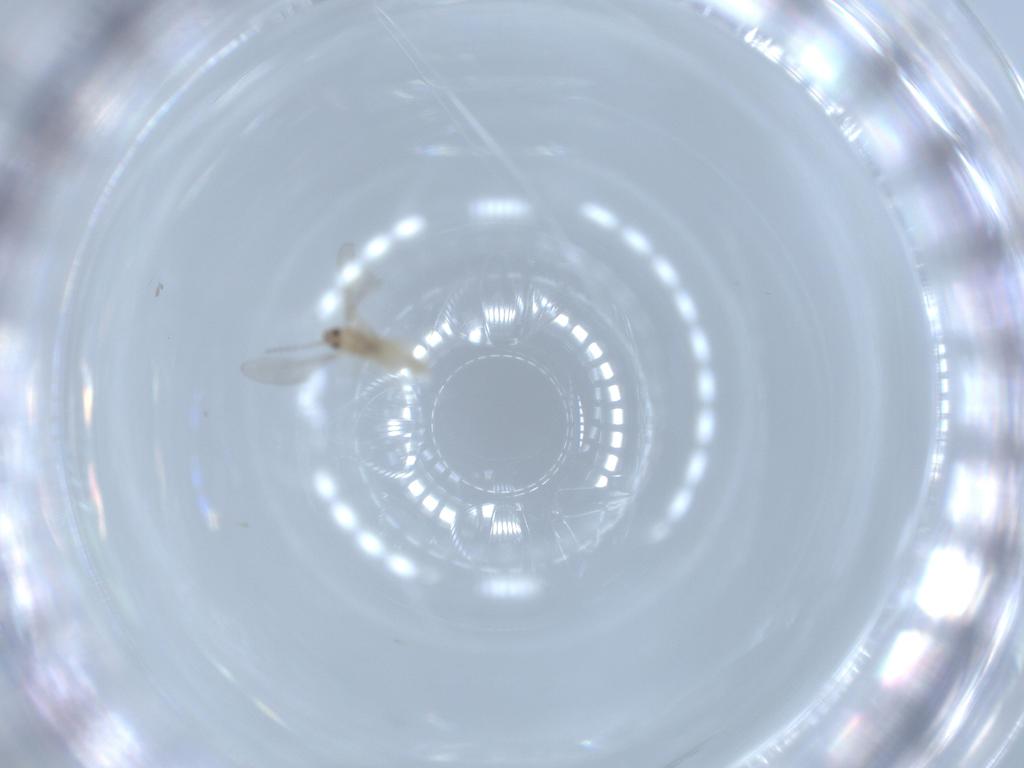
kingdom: Animalia
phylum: Arthropoda
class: Insecta
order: Diptera
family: Cecidomyiidae
